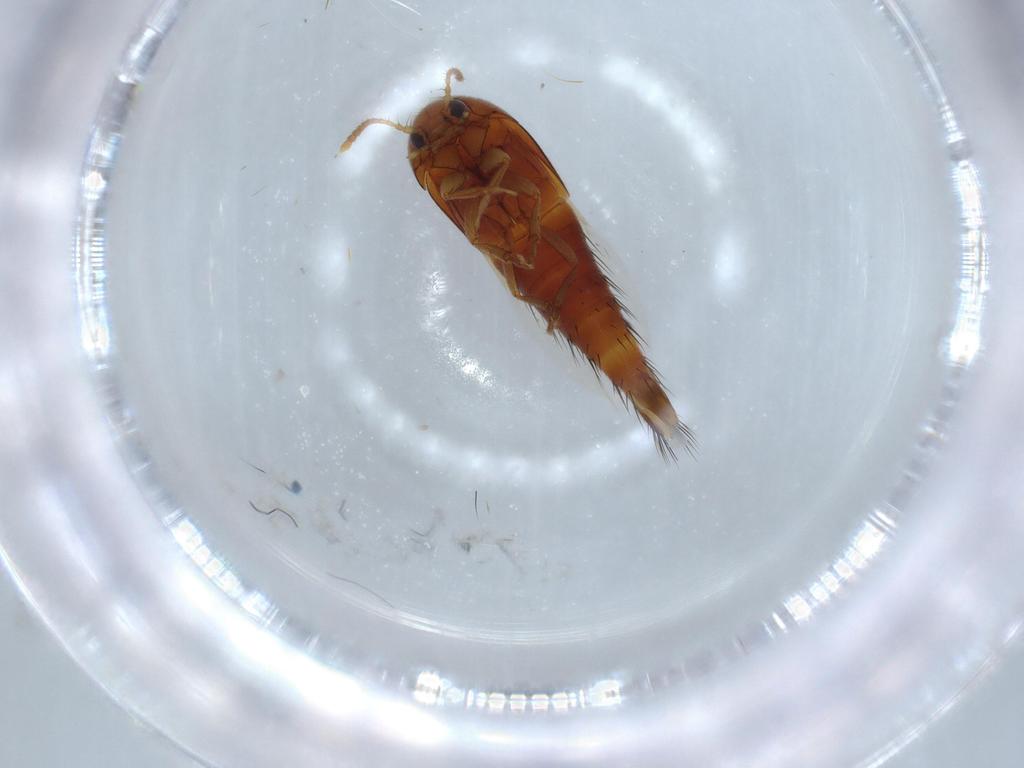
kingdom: Animalia
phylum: Arthropoda
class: Insecta
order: Coleoptera
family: Staphylinidae
